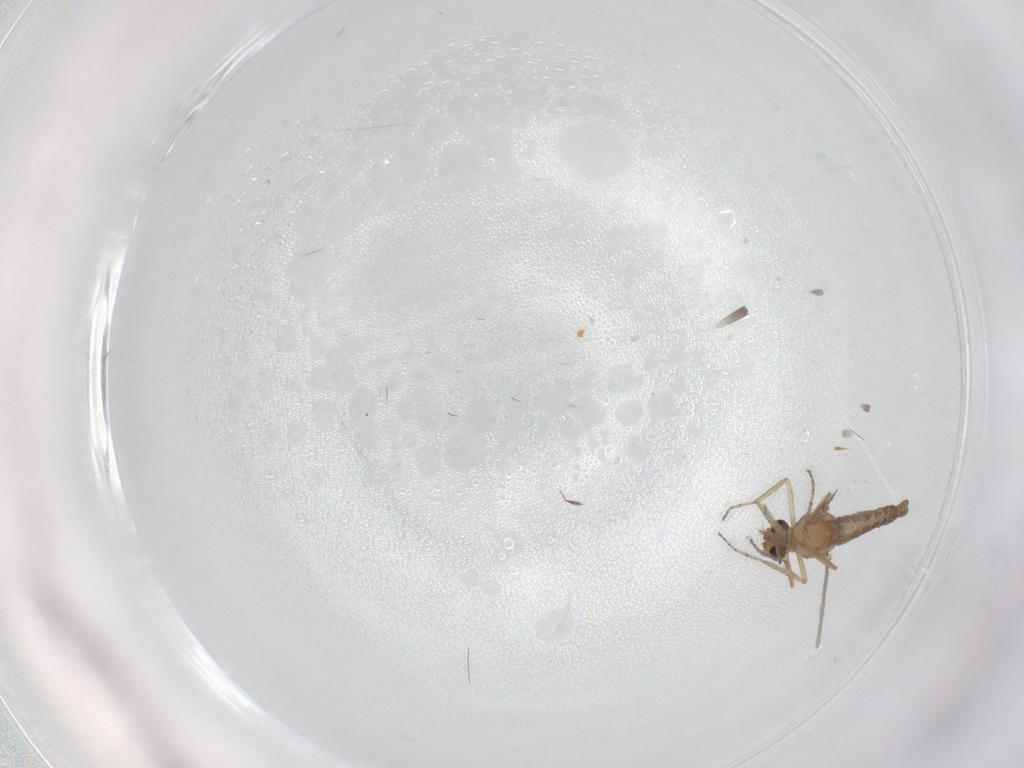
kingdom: Animalia
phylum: Arthropoda
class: Insecta
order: Diptera
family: Ceratopogonidae
